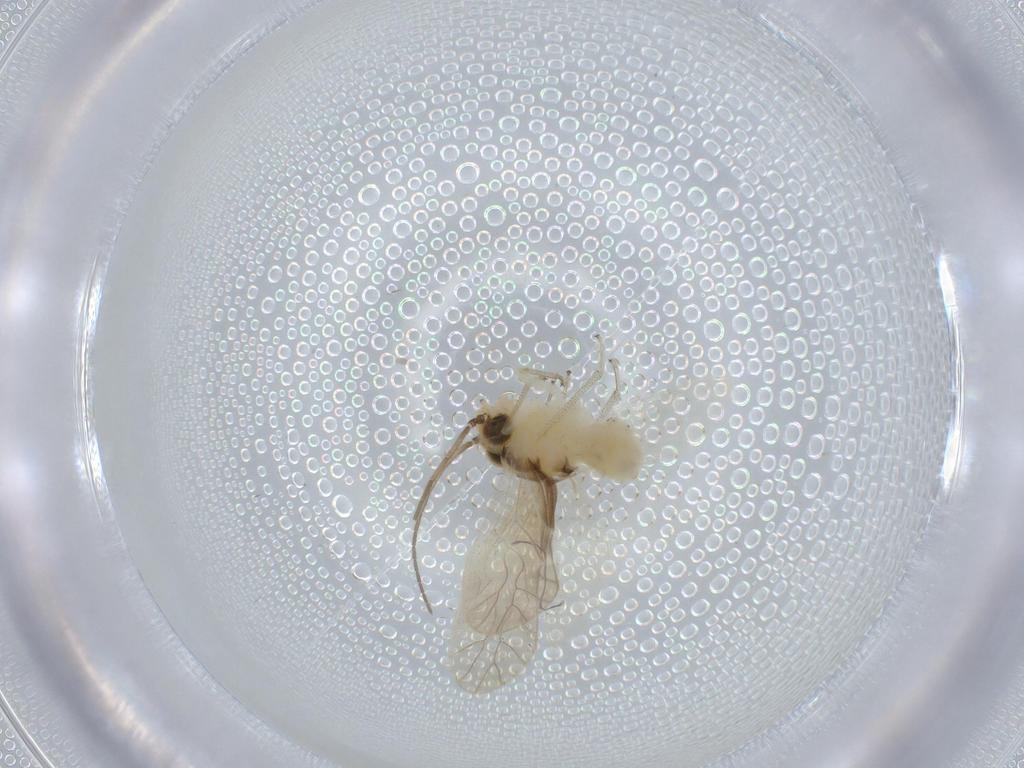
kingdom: Animalia
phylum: Arthropoda
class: Insecta
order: Psocodea
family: Caeciliusidae
